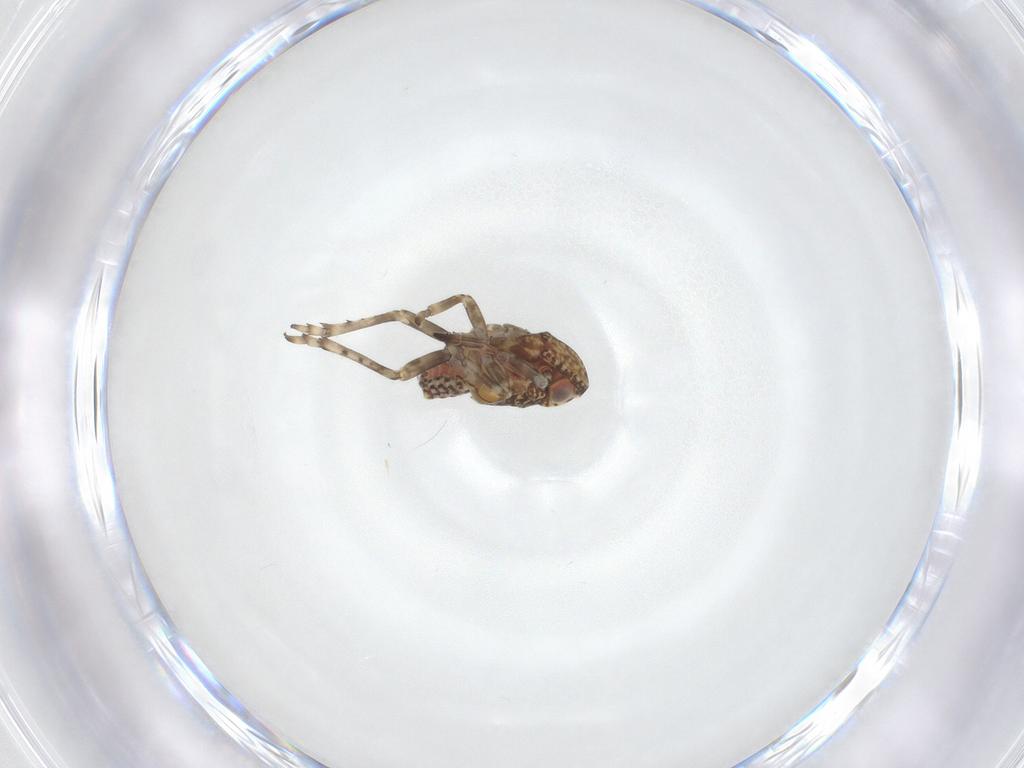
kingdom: Animalia
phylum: Arthropoda
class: Insecta
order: Hemiptera
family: Tropiduchidae
